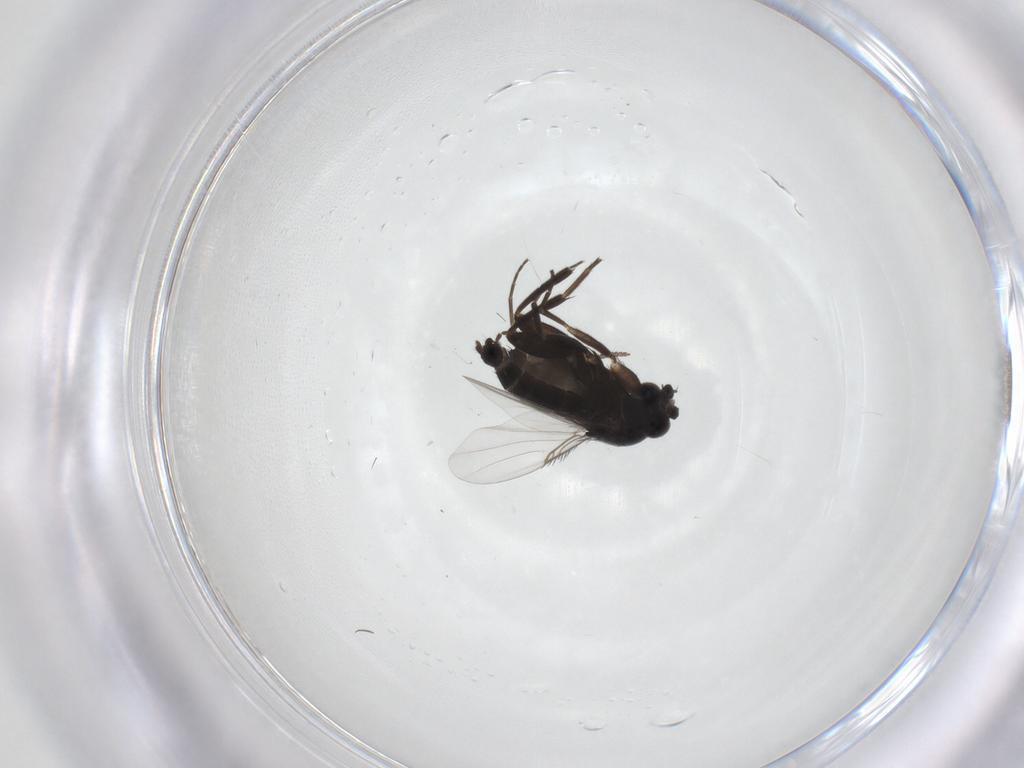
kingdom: Animalia
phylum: Arthropoda
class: Insecta
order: Diptera
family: Phoridae
